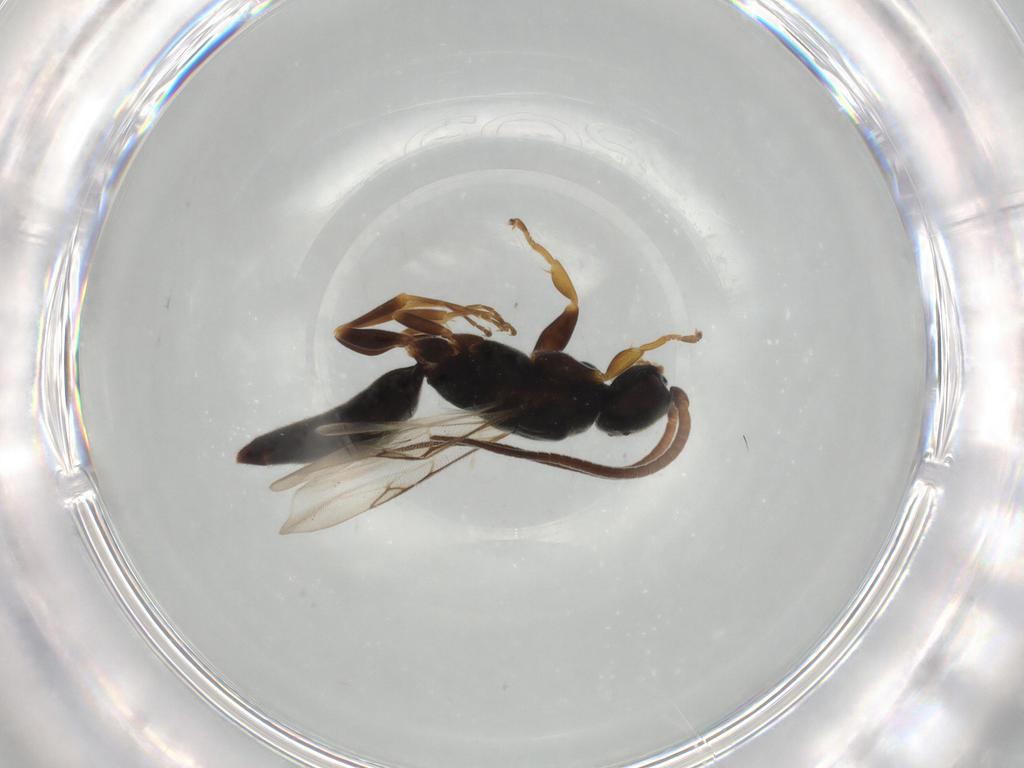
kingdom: Animalia
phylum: Arthropoda
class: Insecta
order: Hymenoptera
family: Sclerogibbidae
